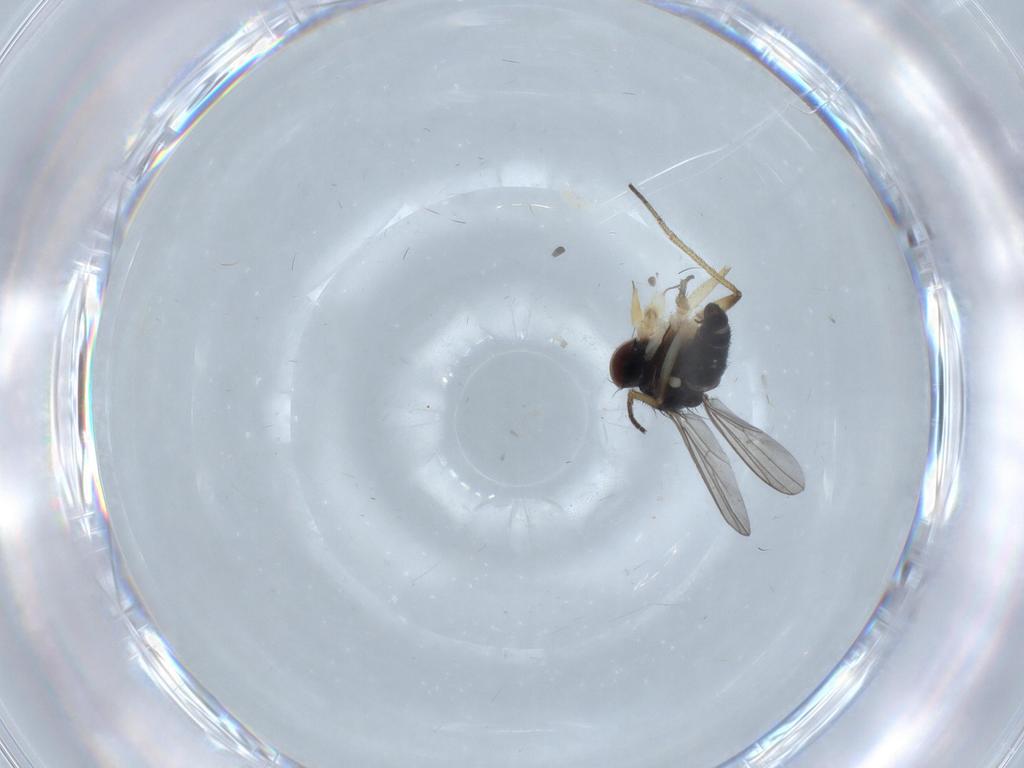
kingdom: Animalia
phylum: Arthropoda
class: Insecta
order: Diptera
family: Dolichopodidae
